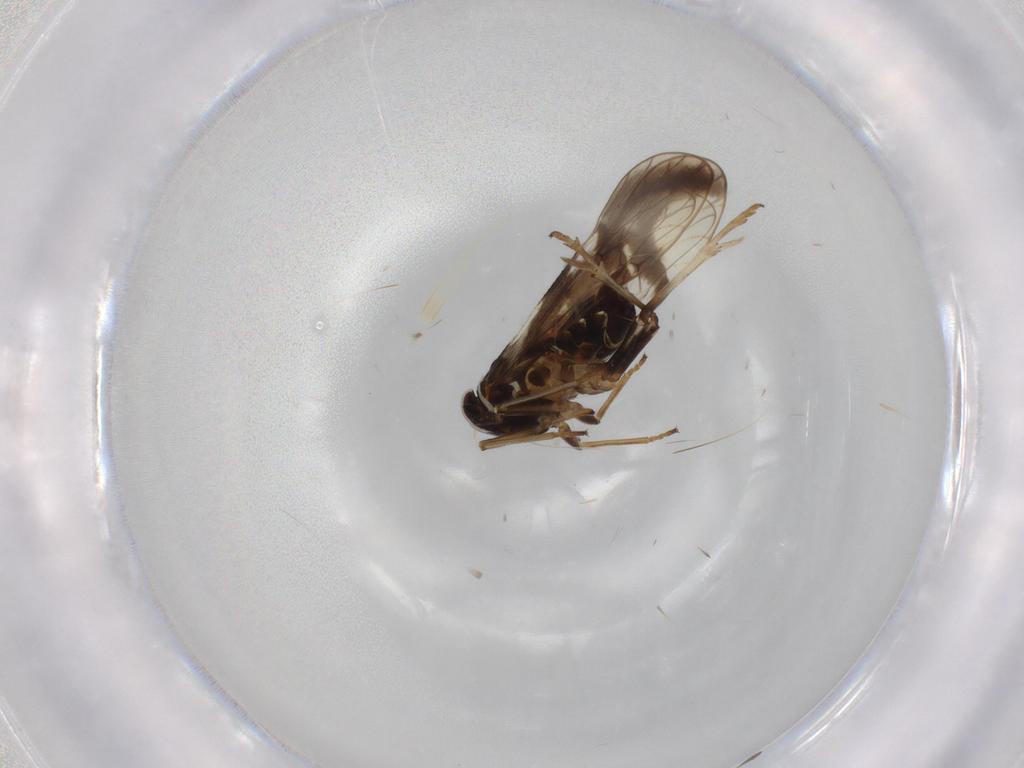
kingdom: Animalia
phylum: Arthropoda
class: Insecta
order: Hemiptera
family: Delphacidae
